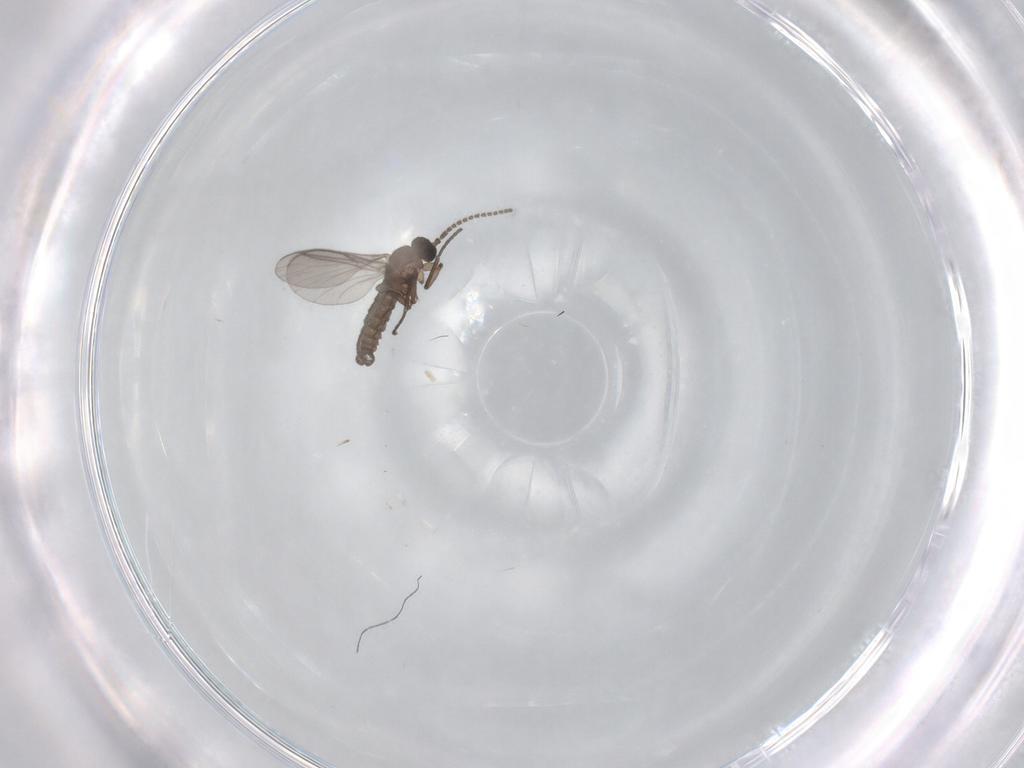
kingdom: Animalia
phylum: Arthropoda
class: Insecta
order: Diptera
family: Cecidomyiidae
